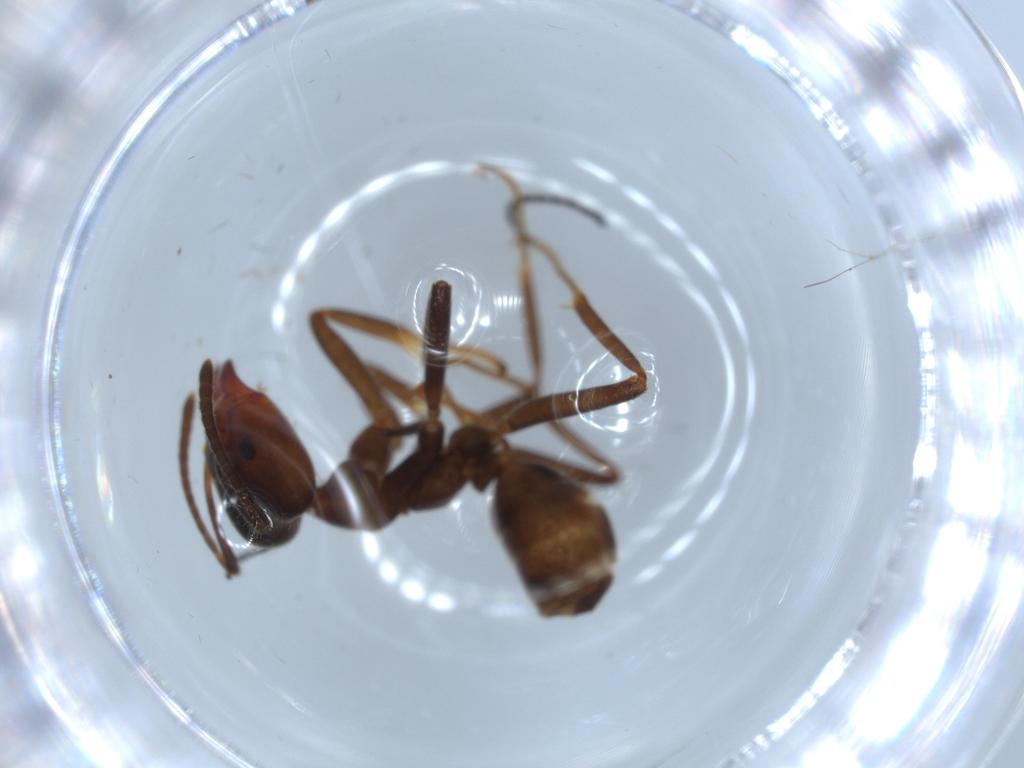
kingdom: Animalia
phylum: Arthropoda
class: Insecta
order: Hymenoptera
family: Formicidae
